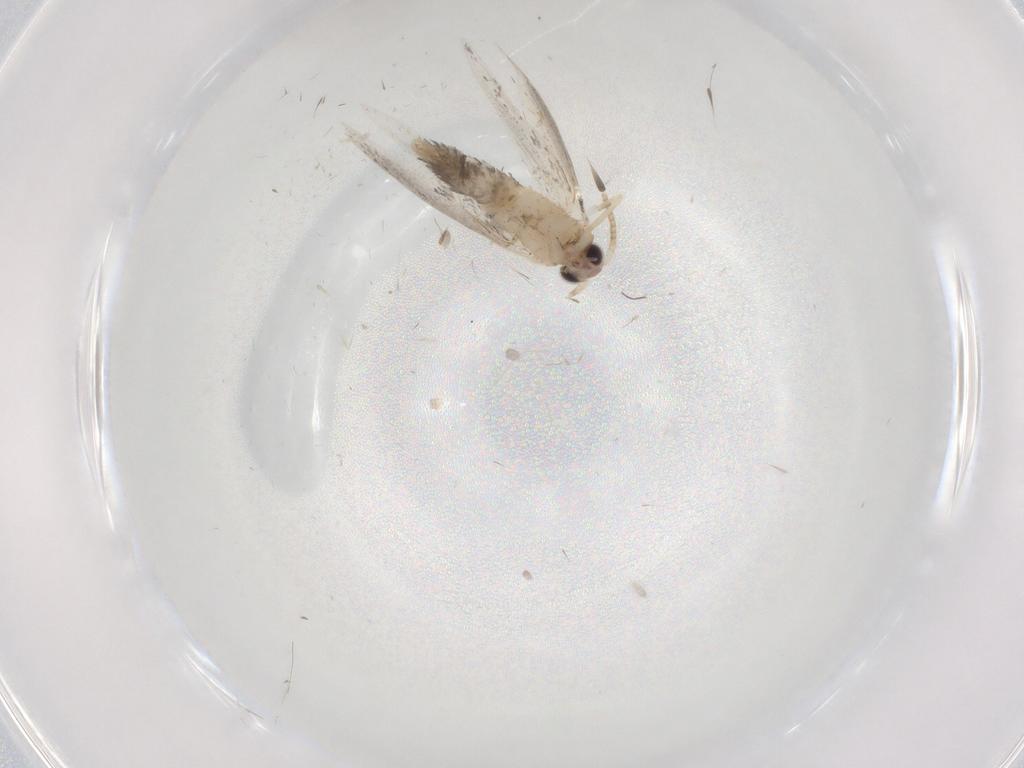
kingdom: Animalia
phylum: Arthropoda
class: Insecta
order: Lepidoptera
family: Tineidae
